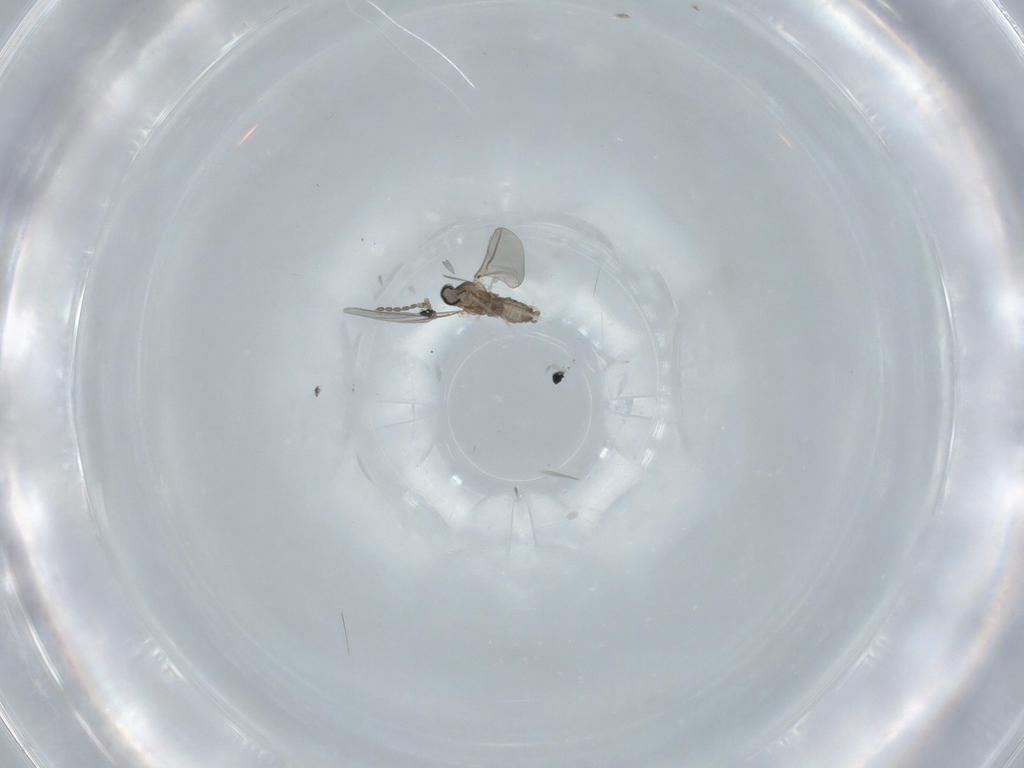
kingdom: Animalia
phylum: Arthropoda
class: Insecta
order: Diptera
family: Cecidomyiidae
